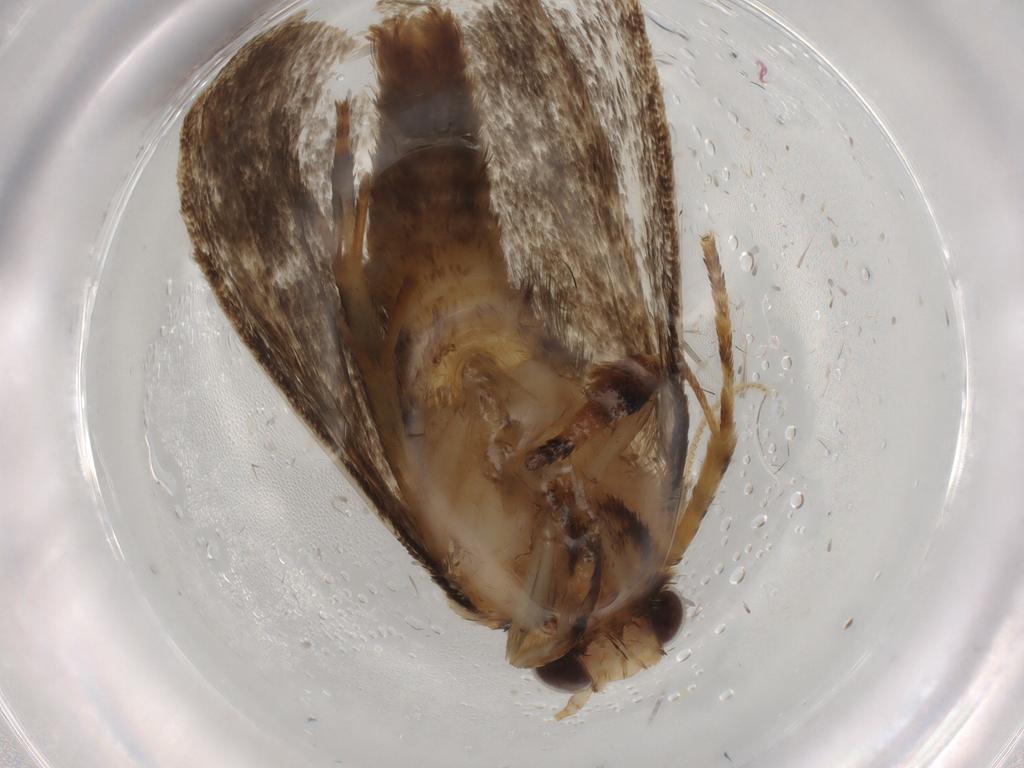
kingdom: Animalia
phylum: Arthropoda
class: Insecta
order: Lepidoptera
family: Tineidae
